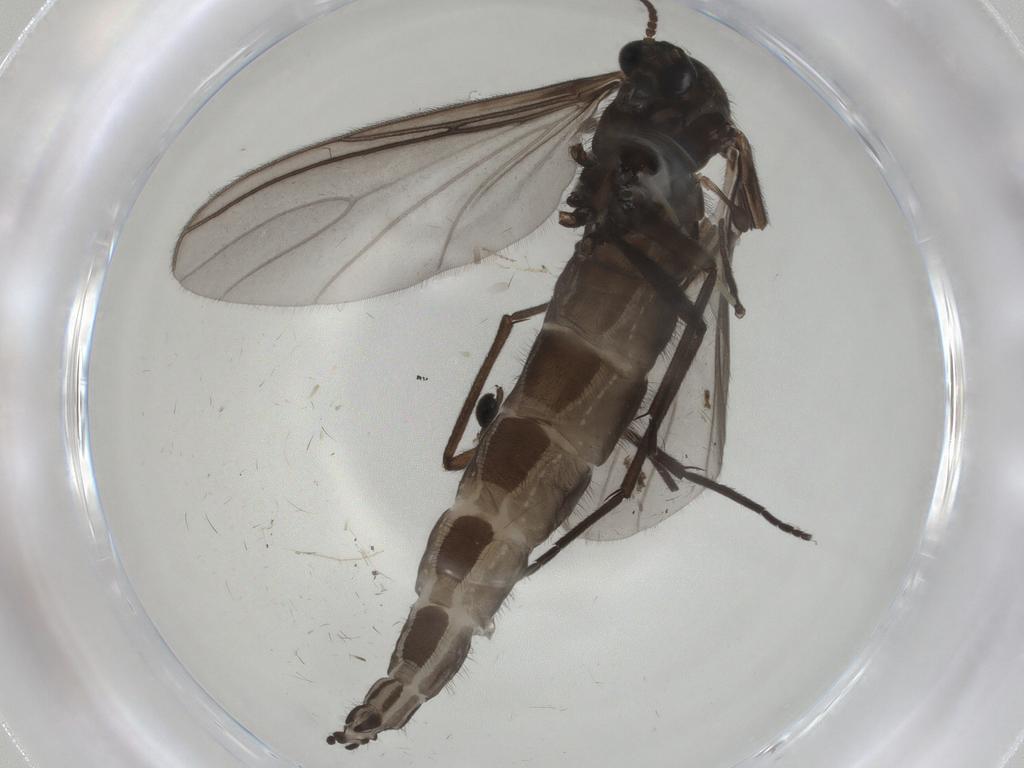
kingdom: Animalia
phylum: Arthropoda
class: Insecta
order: Diptera
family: Sciaridae
